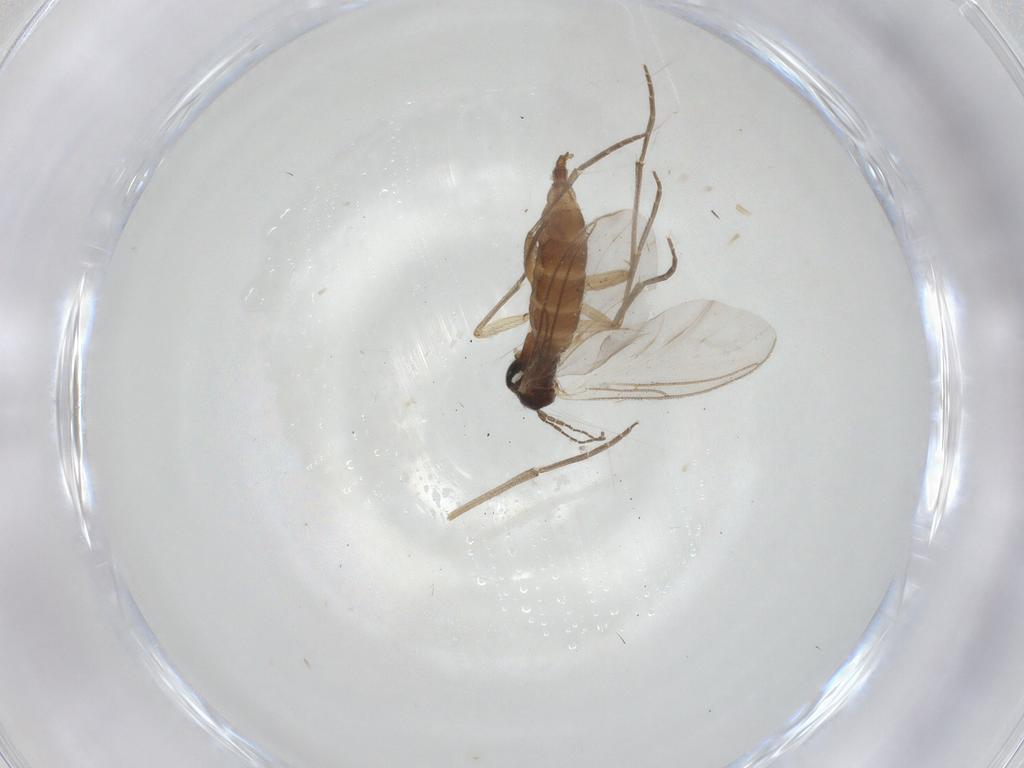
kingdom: Animalia
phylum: Arthropoda
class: Insecta
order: Diptera
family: Sciaridae
